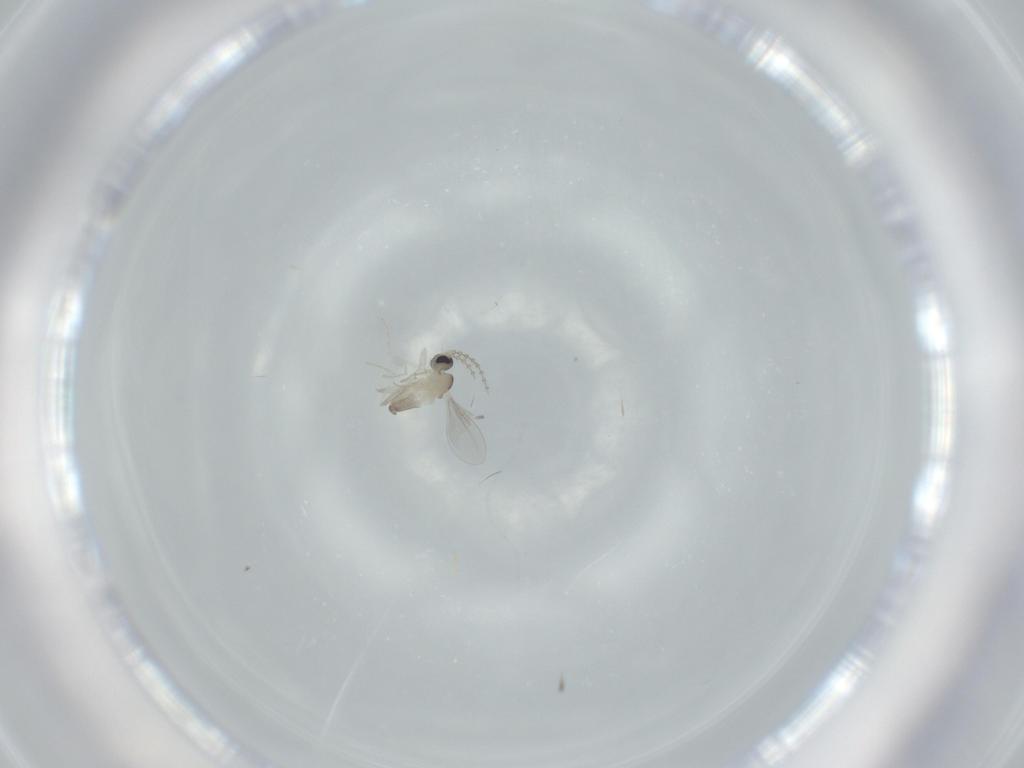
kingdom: Animalia
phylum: Arthropoda
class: Insecta
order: Diptera
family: Cecidomyiidae
